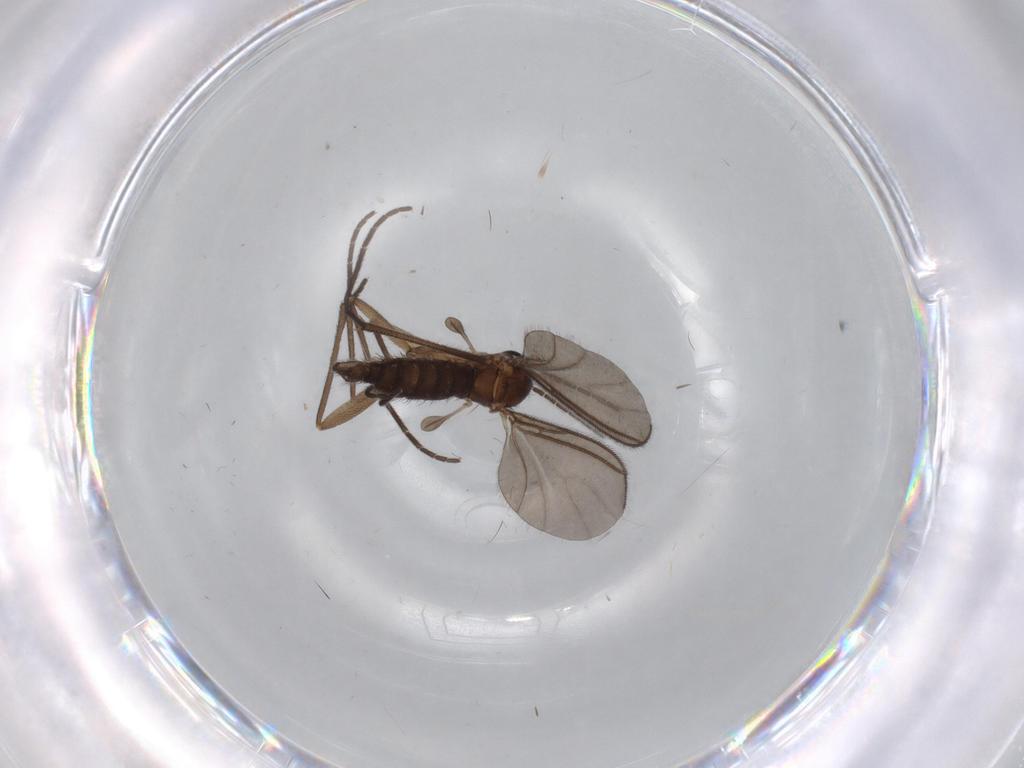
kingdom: Animalia
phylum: Arthropoda
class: Insecta
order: Diptera
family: Sciaridae
